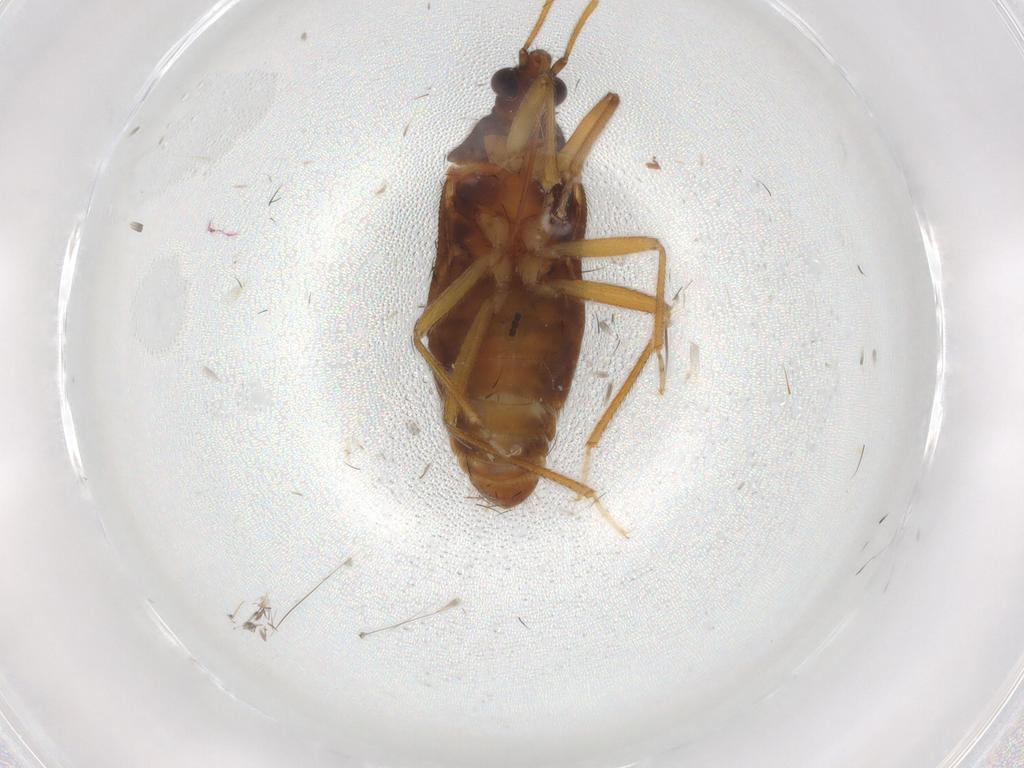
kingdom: Animalia
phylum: Arthropoda
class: Insecta
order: Hemiptera
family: Anthocoridae
